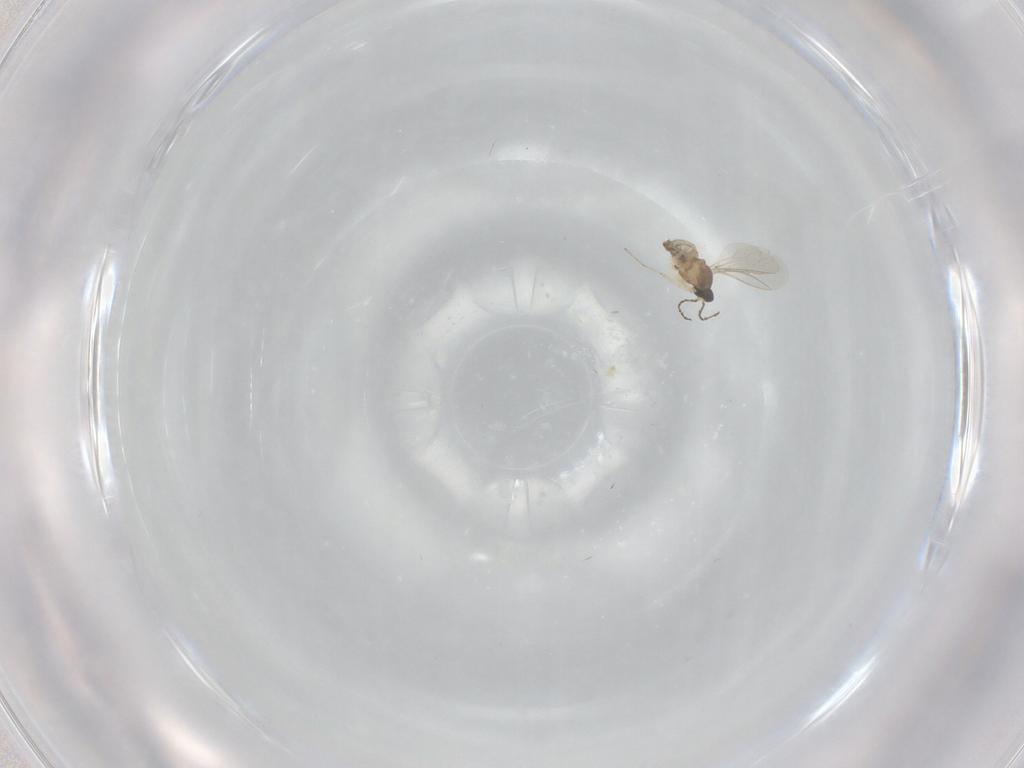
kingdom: Animalia
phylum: Arthropoda
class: Insecta
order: Diptera
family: Cecidomyiidae
